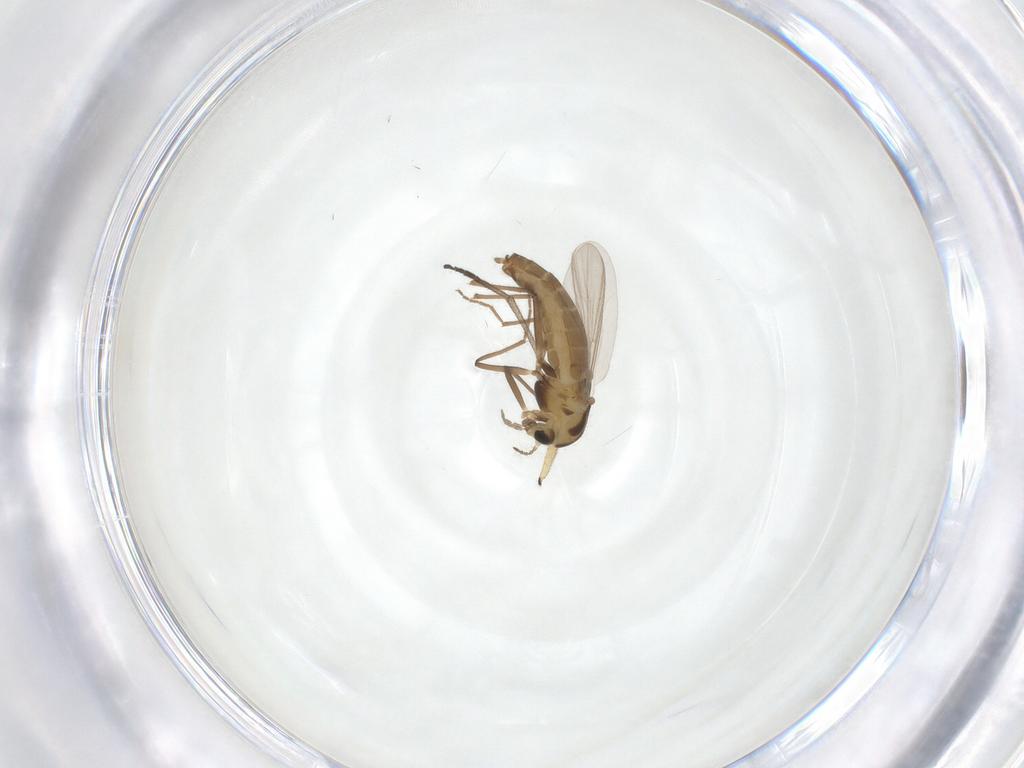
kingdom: Animalia
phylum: Arthropoda
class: Insecta
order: Diptera
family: Chironomidae
